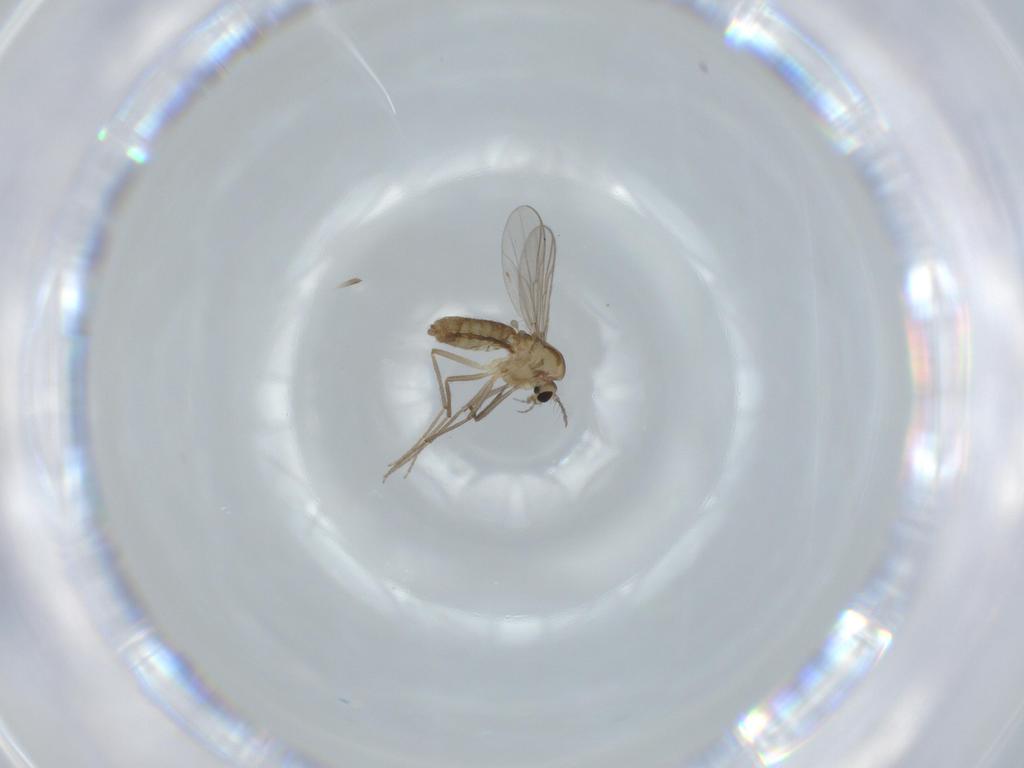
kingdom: Animalia
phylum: Arthropoda
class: Insecta
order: Diptera
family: Chironomidae
